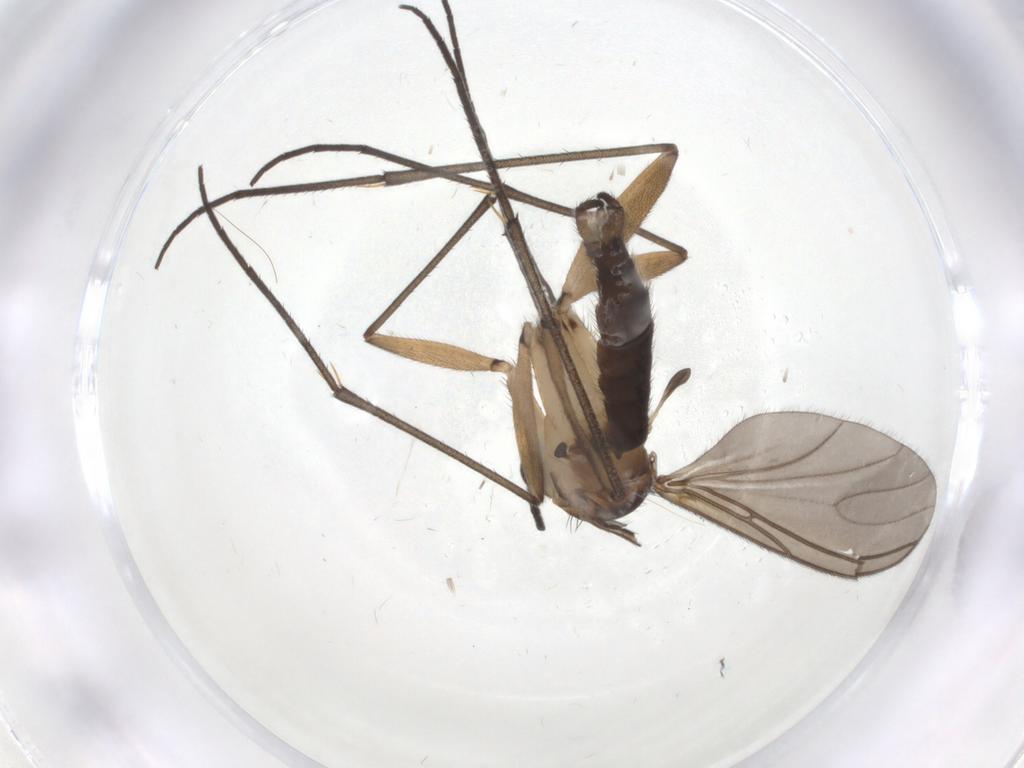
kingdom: Animalia
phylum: Arthropoda
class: Insecta
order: Diptera
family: Sciaridae
